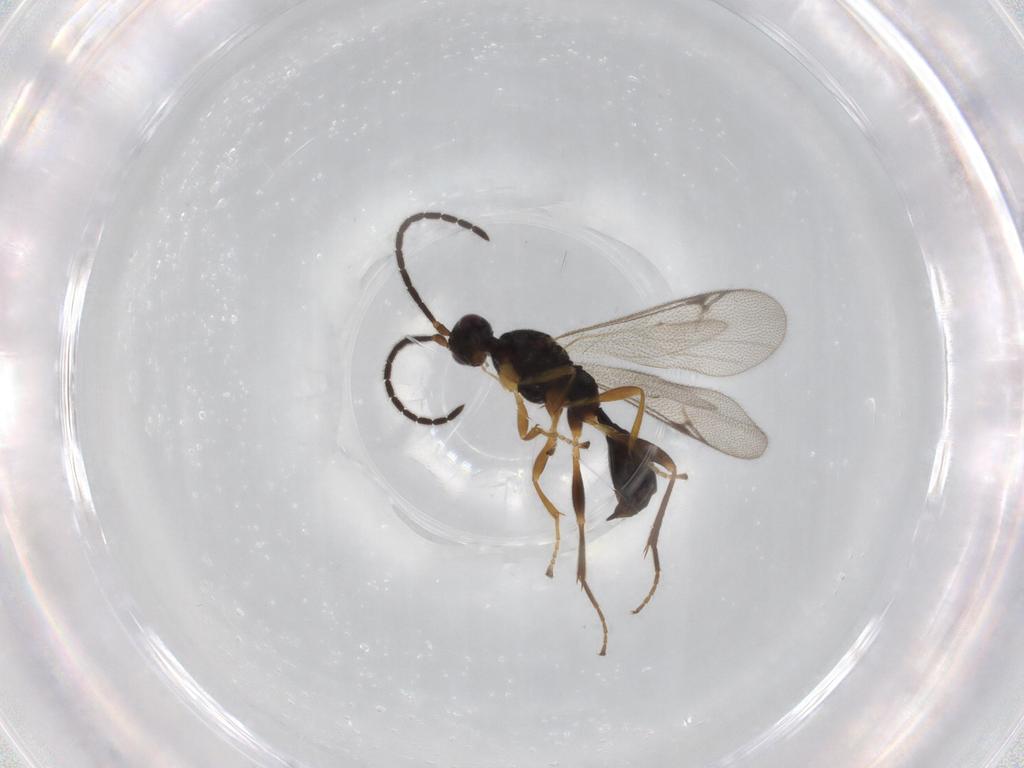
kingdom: Animalia
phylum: Arthropoda
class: Insecta
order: Hymenoptera
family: Proctotrupidae
